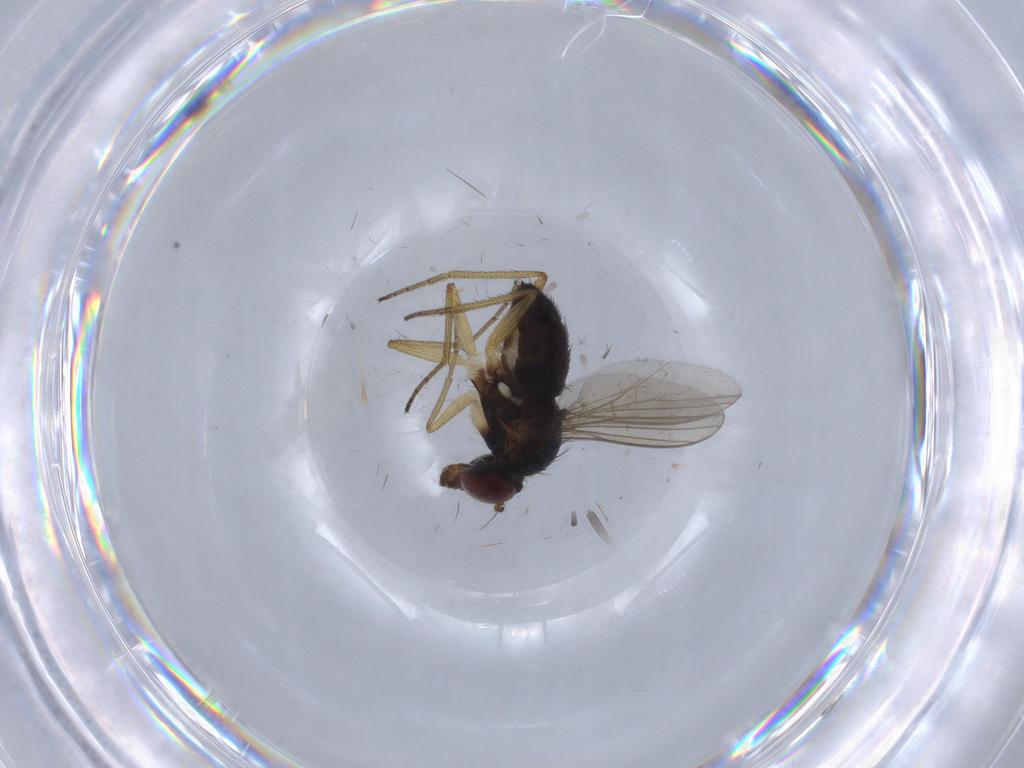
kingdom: Animalia
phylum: Arthropoda
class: Insecta
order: Diptera
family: Dolichopodidae
